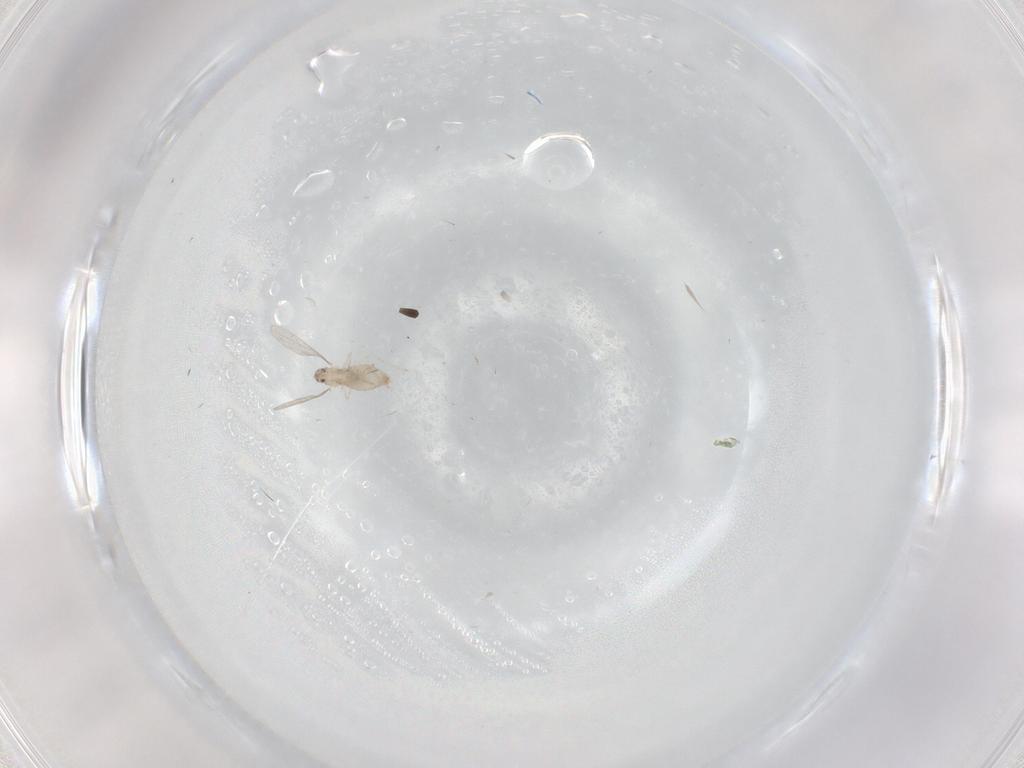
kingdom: Animalia
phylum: Arthropoda
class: Insecta
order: Diptera
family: Cecidomyiidae
